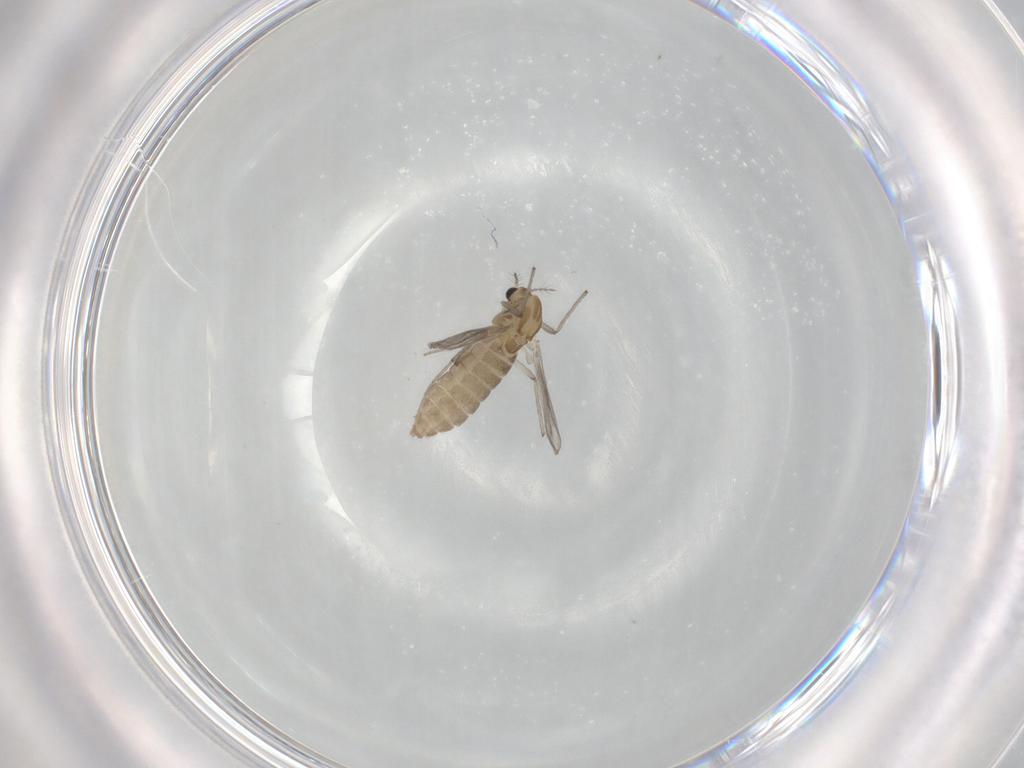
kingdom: Animalia
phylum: Arthropoda
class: Insecta
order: Diptera
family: Chironomidae
